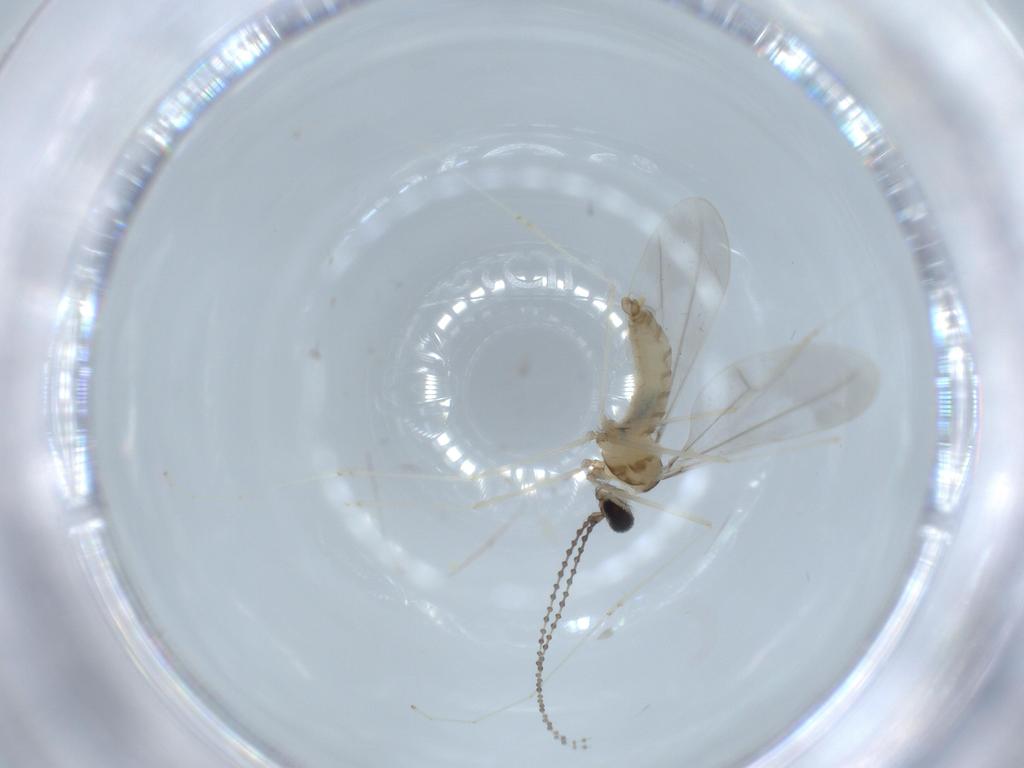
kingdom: Animalia
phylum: Arthropoda
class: Insecta
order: Diptera
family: Cecidomyiidae
